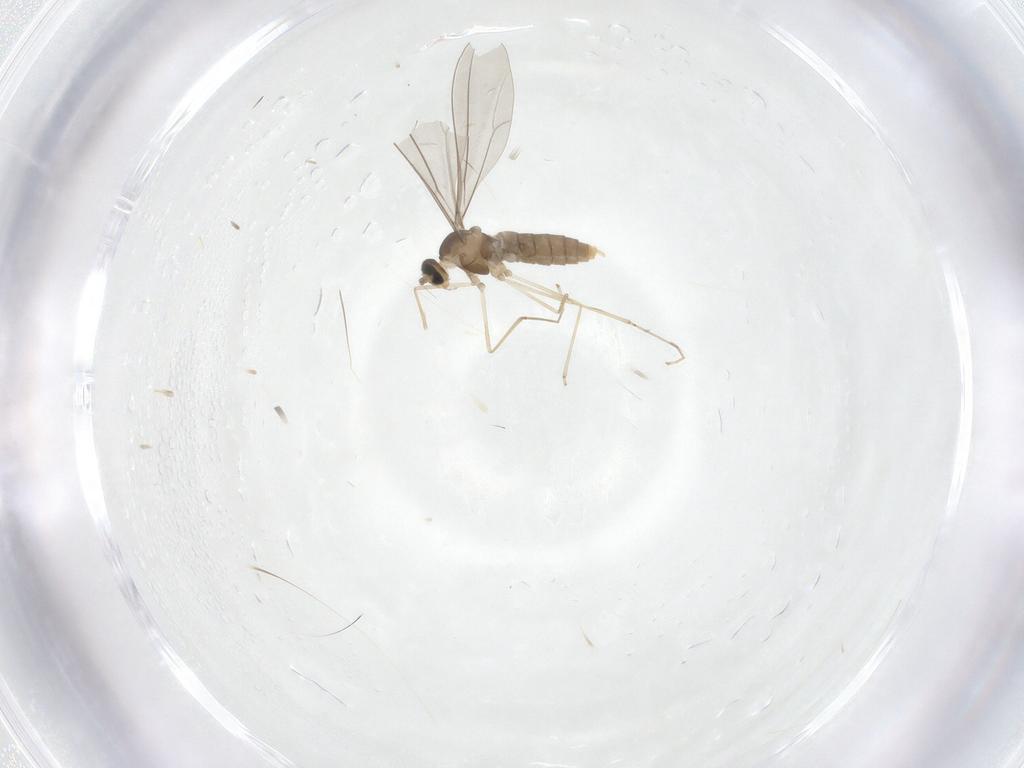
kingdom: Animalia
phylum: Arthropoda
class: Insecta
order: Diptera
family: Cecidomyiidae
